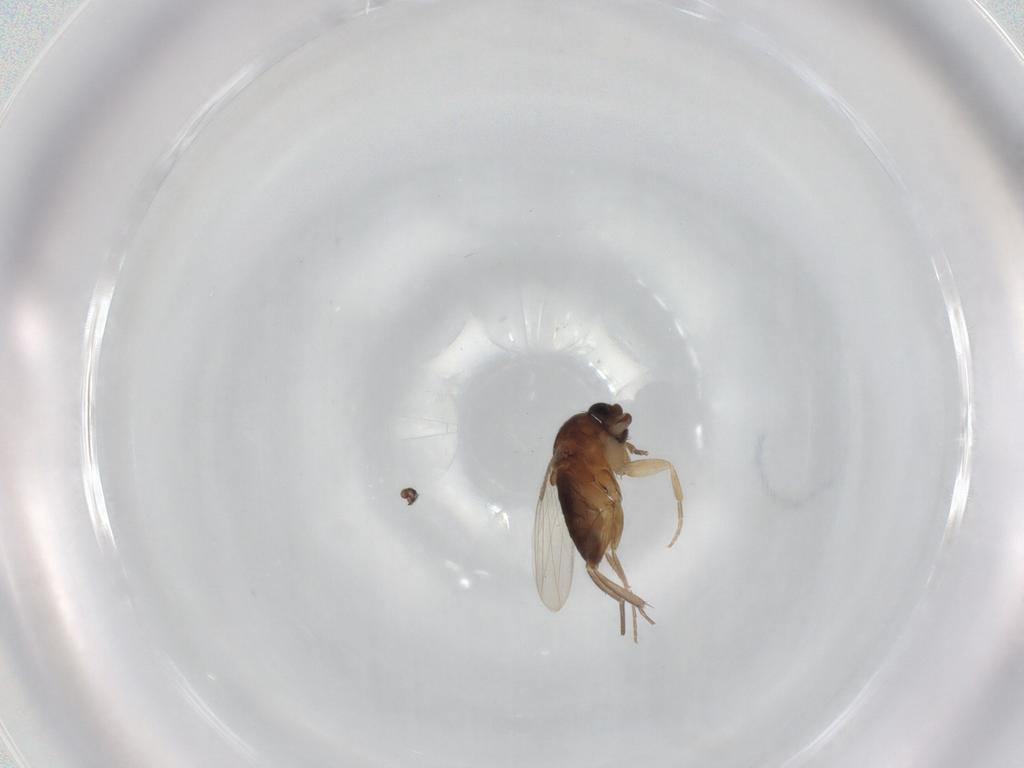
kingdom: Animalia
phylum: Arthropoda
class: Insecta
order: Diptera
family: Phoridae
